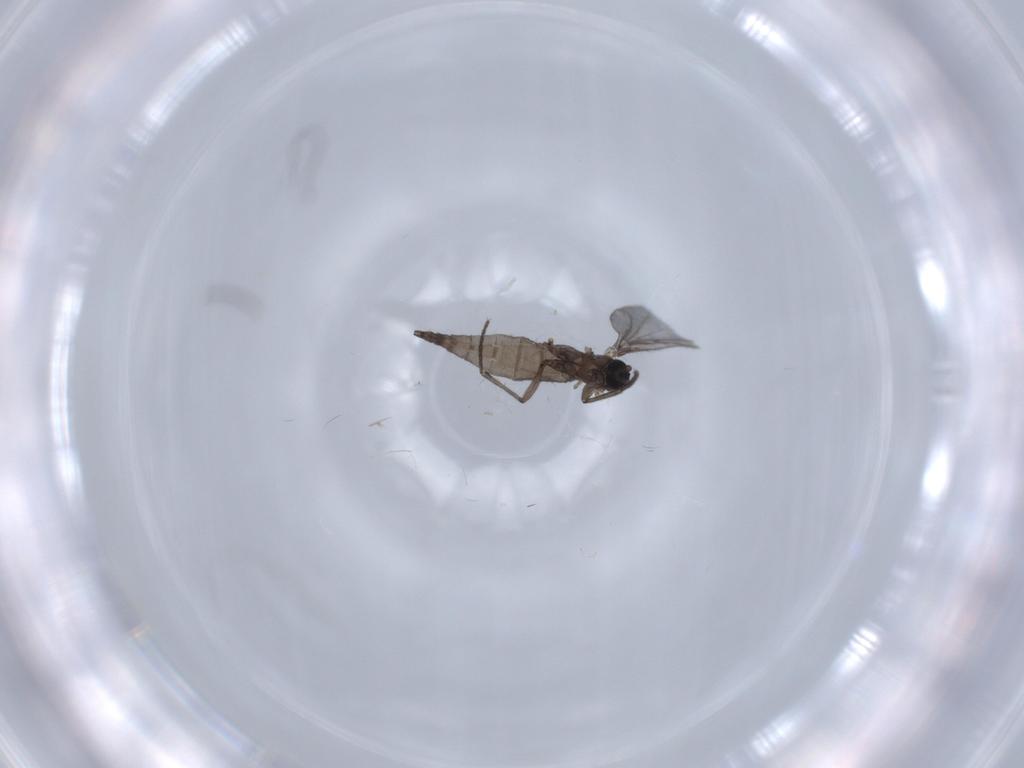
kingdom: Animalia
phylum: Arthropoda
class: Insecta
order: Diptera
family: Sciaridae
